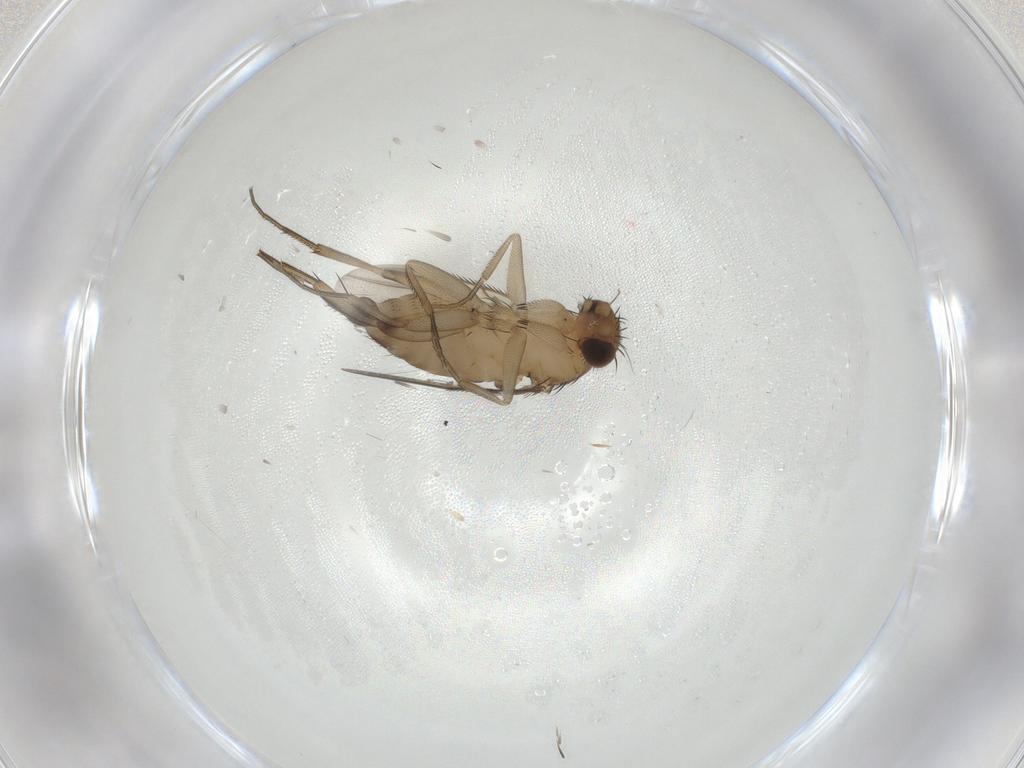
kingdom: Animalia
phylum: Arthropoda
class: Insecta
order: Diptera
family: Phoridae
